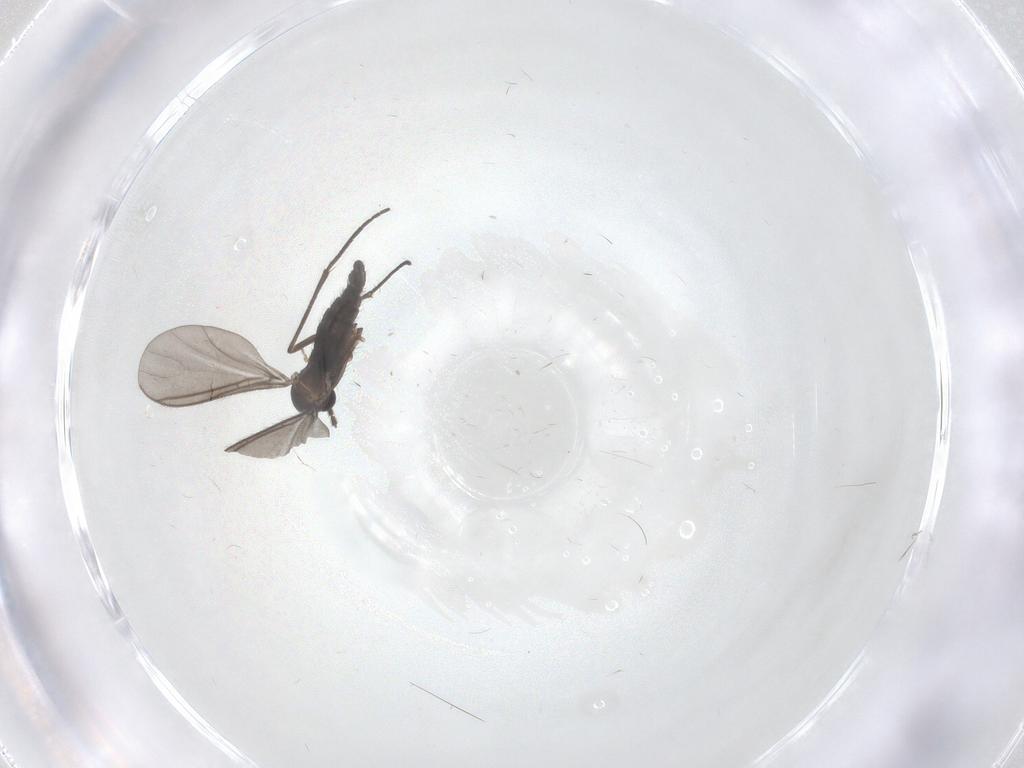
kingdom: Animalia
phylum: Arthropoda
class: Insecta
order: Diptera
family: Sciaridae
